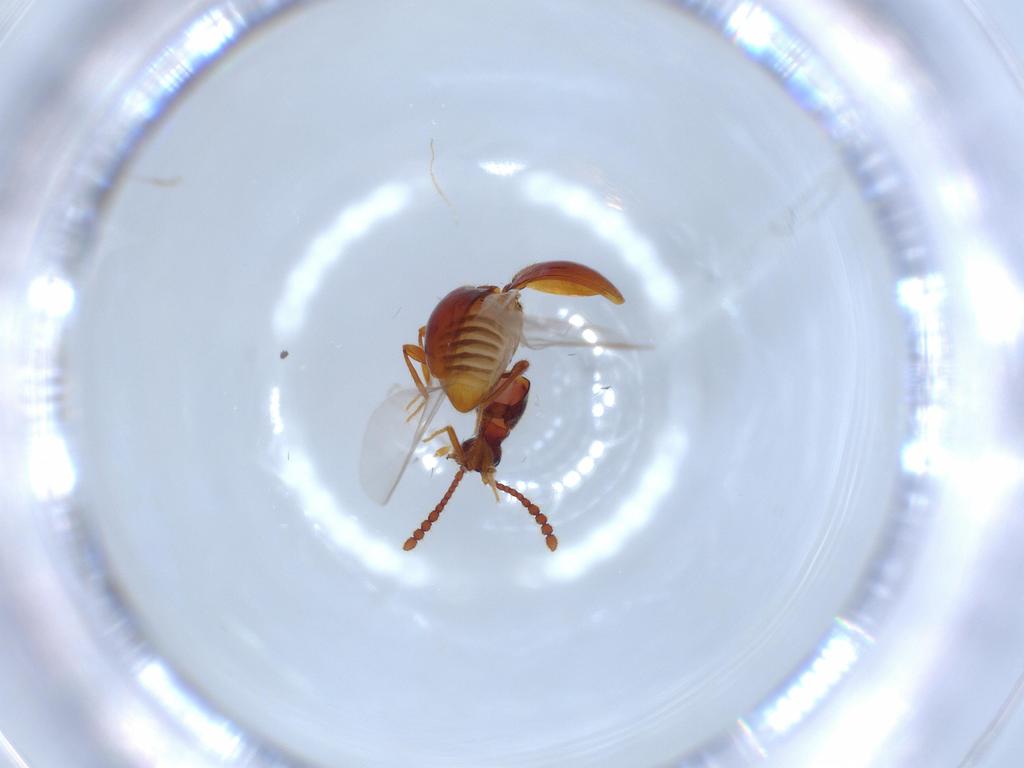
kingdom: Animalia
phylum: Arthropoda
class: Insecta
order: Coleoptera
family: Staphylinidae
